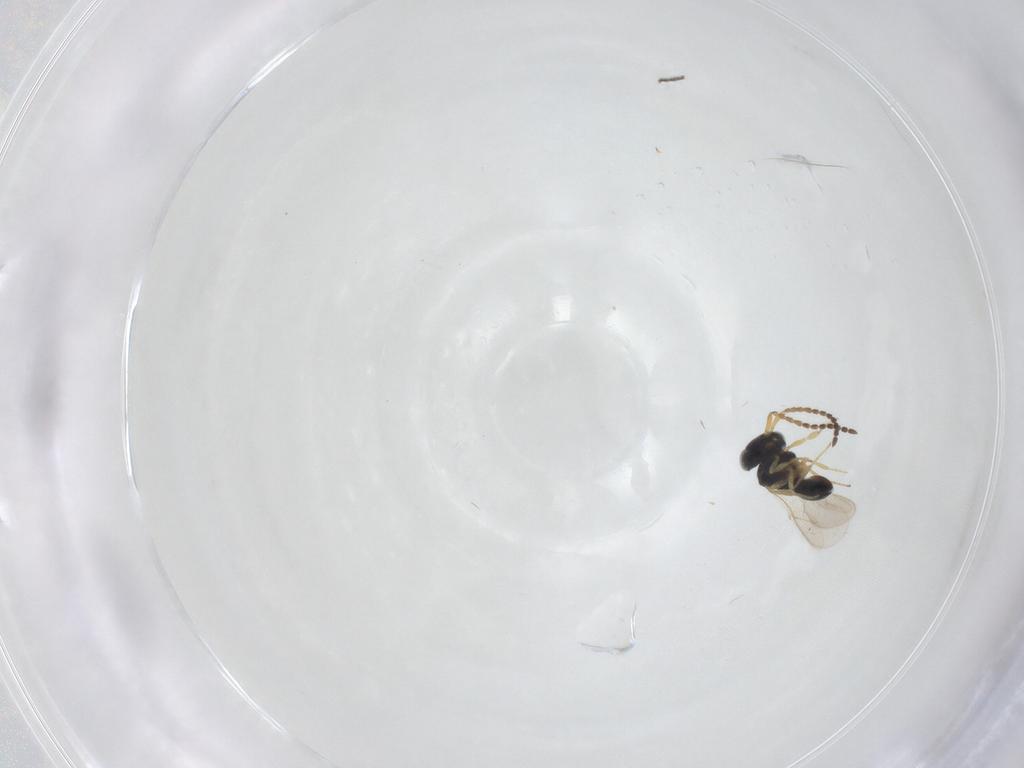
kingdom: Animalia
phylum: Arthropoda
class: Insecta
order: Hymenoptera
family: Scelionidae
